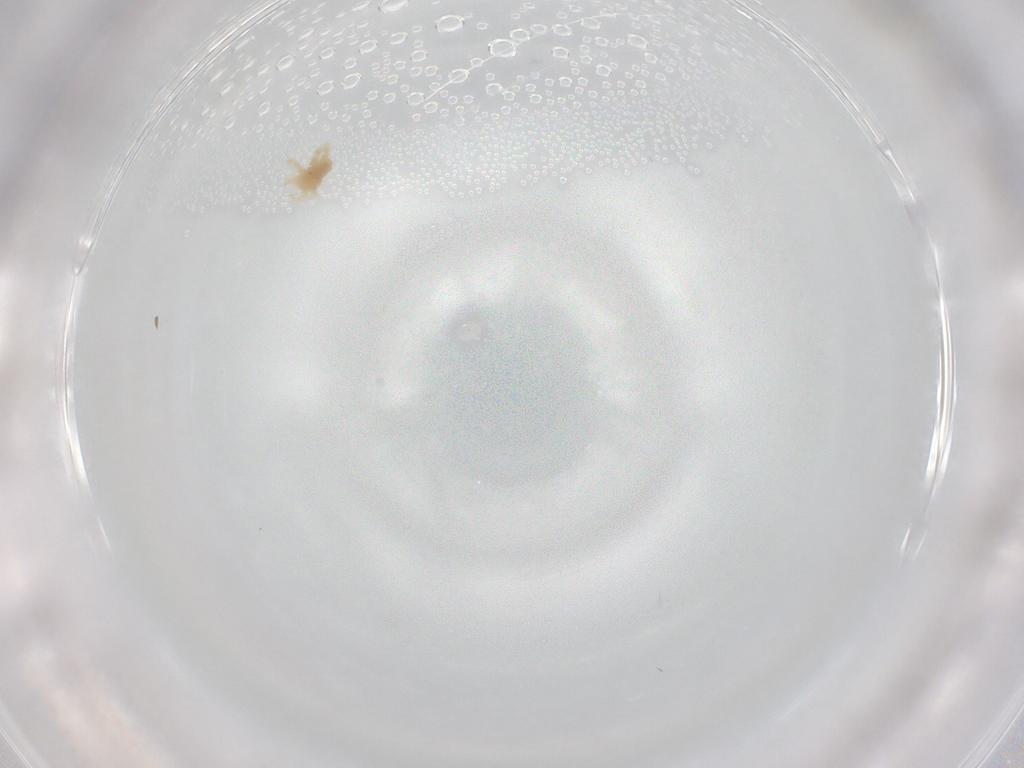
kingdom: Animalia
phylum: Arthropoda
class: Arachnida
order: Trombidiformes
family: Anystidae
